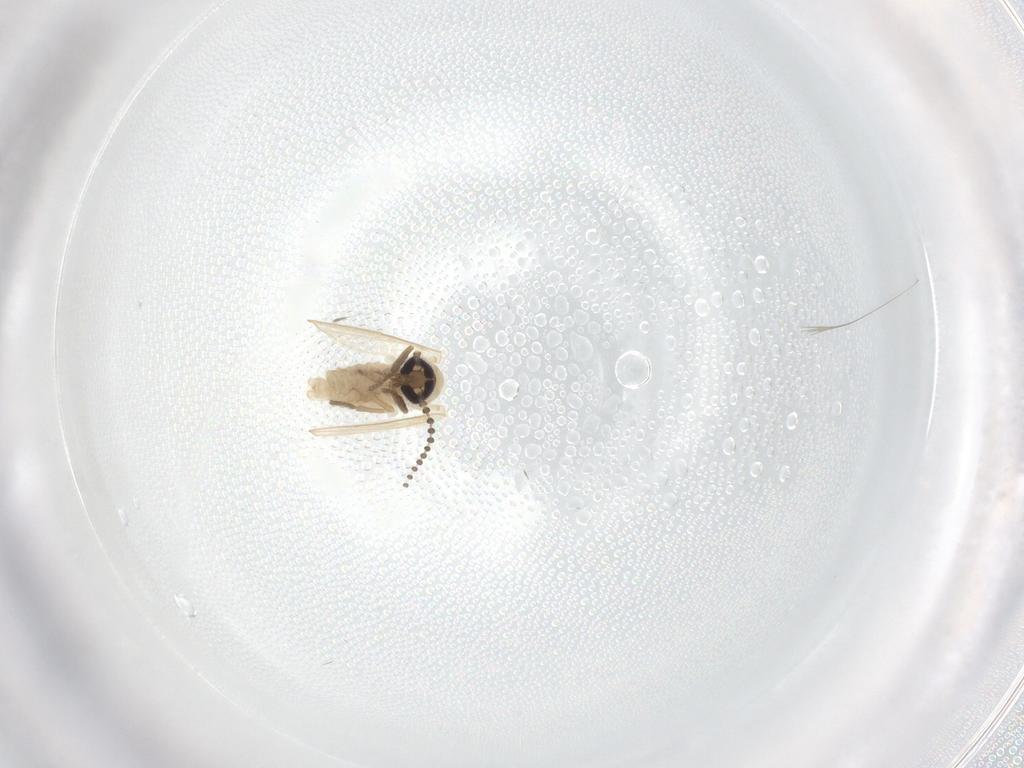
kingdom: Animalia
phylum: Arthropoda
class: Insecta
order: Diptera
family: Psychodidae
